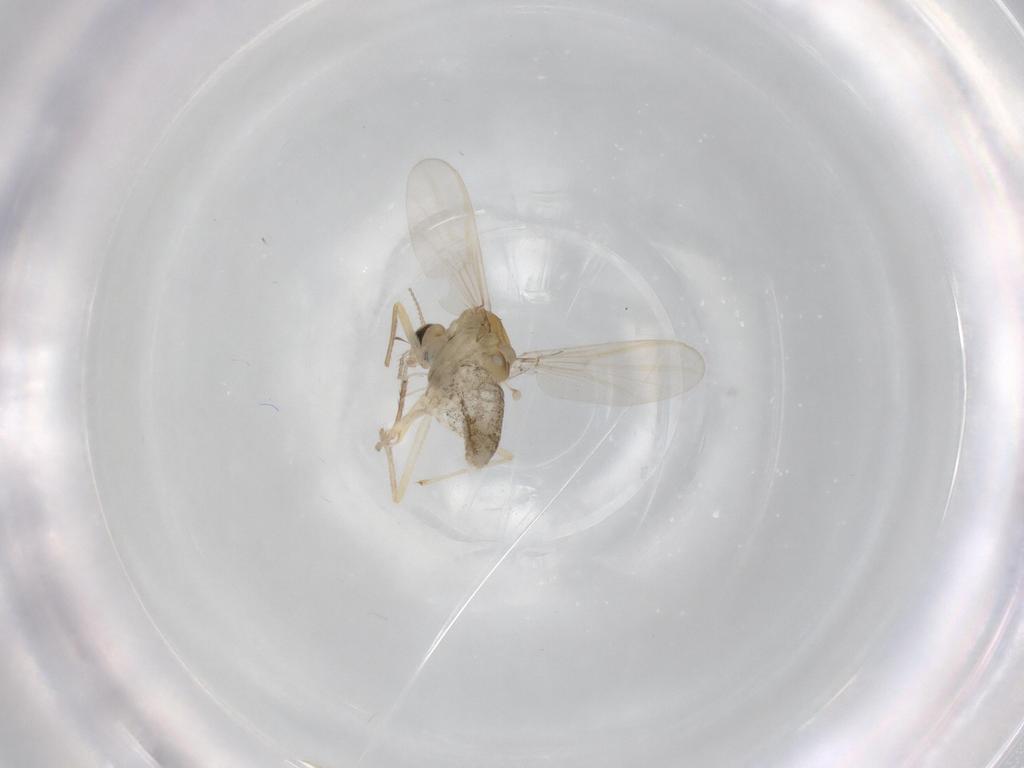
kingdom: Animalia
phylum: Arthropoda
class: Insecta
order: Diptera
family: Chironomidae
